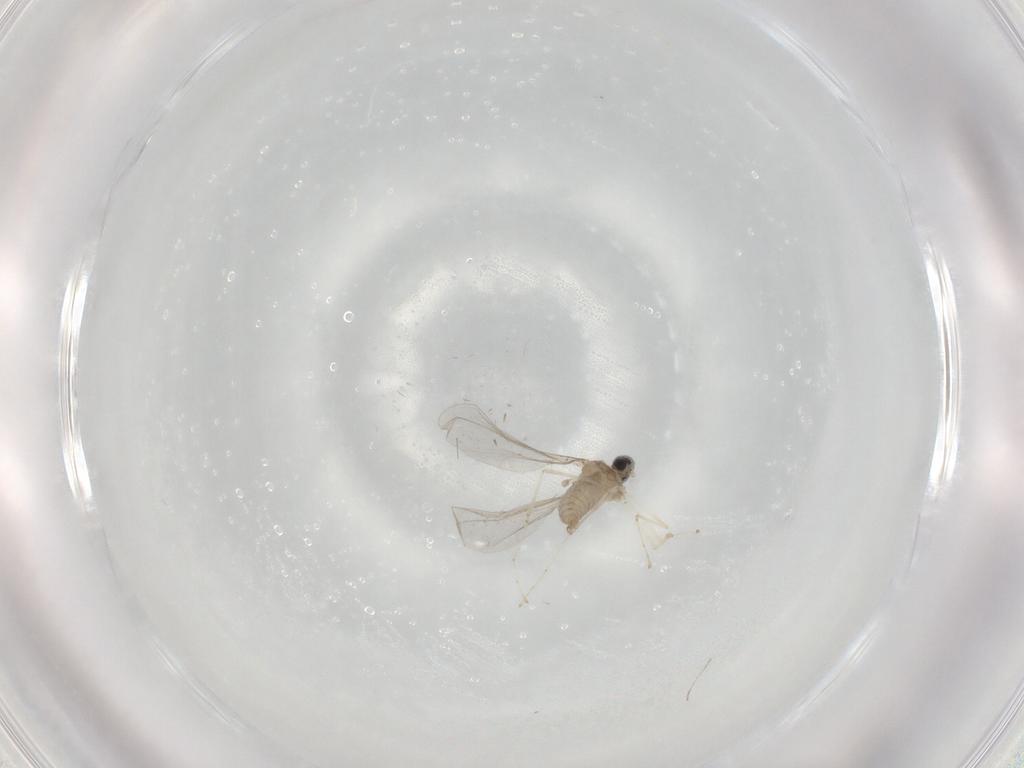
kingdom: Animalia
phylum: Arthropoda
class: Insecta
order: Diptera
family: Cecidomyiidae
